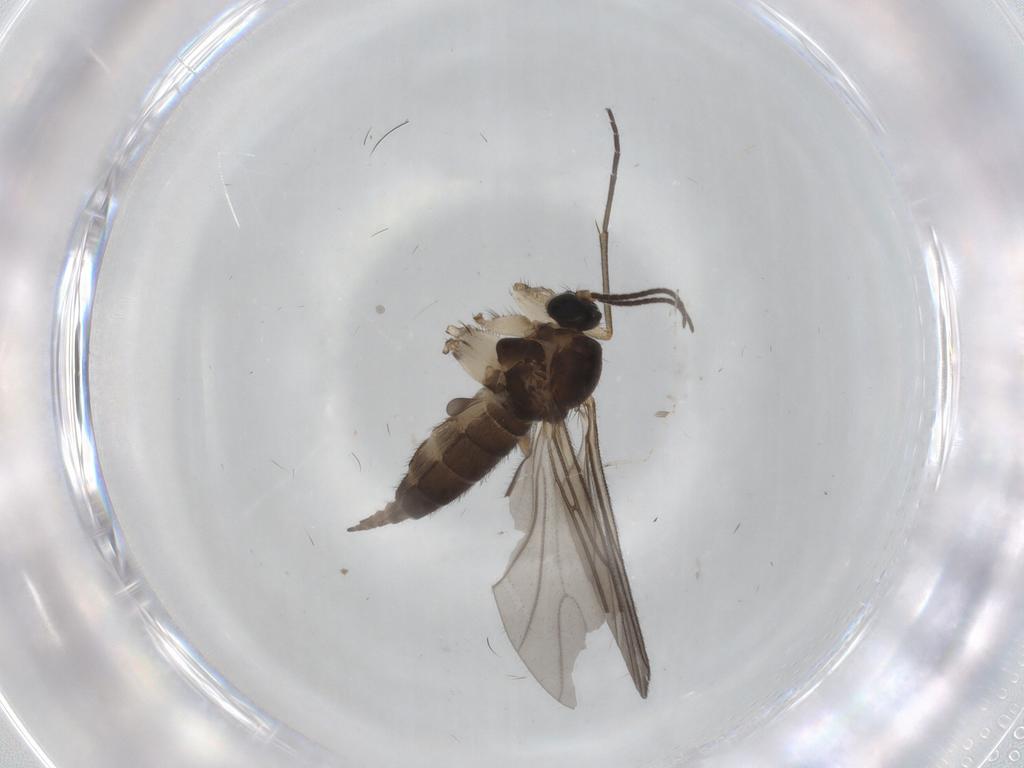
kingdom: Animalia
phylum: Arthropoda
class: Insecta
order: Diptera
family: Sciaridae
